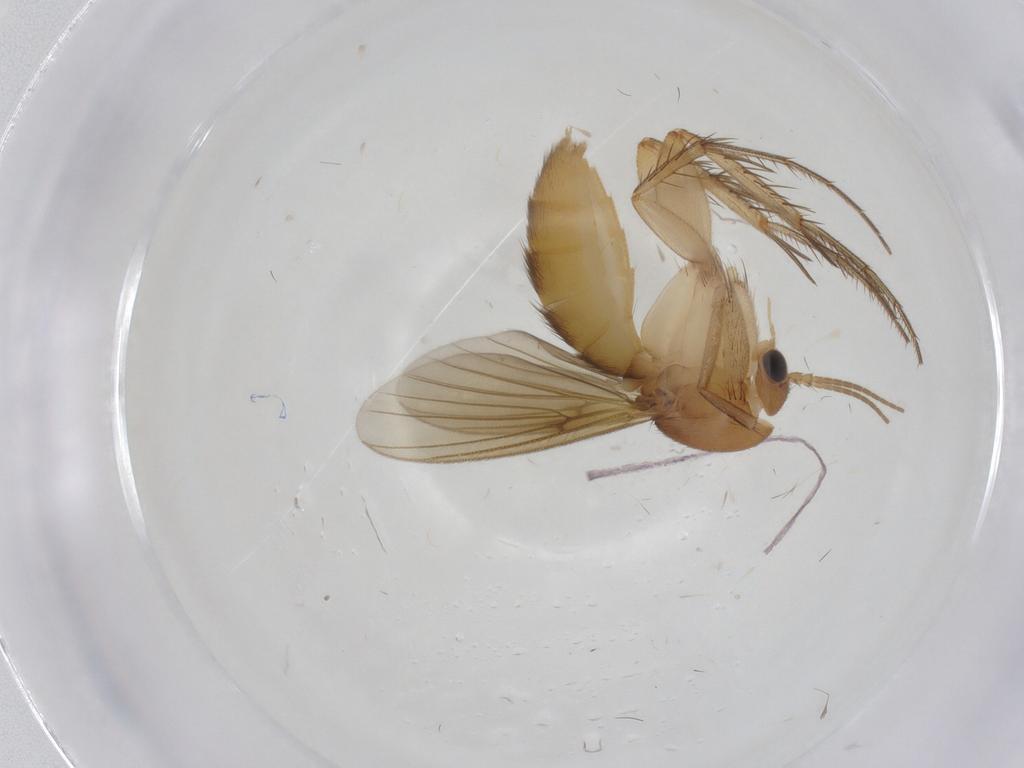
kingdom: Animalia
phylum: Arthropoda
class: Insecta
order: Diptera
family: Mycetophilidae
